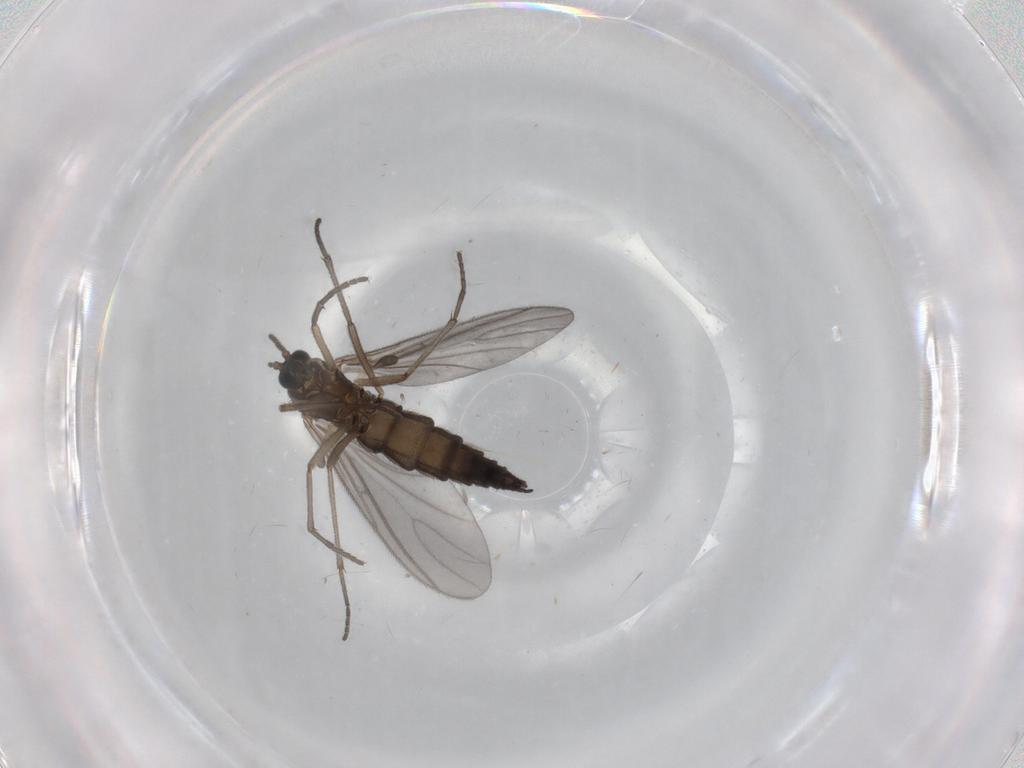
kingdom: Animalia
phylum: Arthropoda
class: Insecta
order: Diptera
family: Sciaridae
